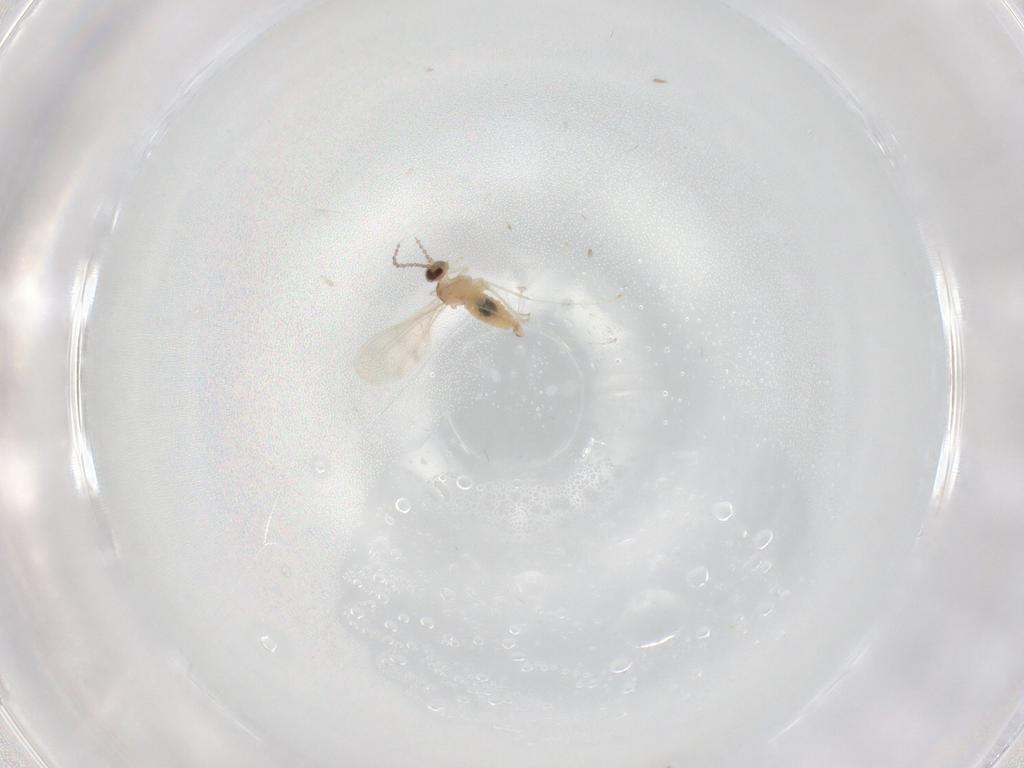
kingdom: Animalia
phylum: Arthropoda
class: Insecta
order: Diptera
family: Cecidomyiidae
